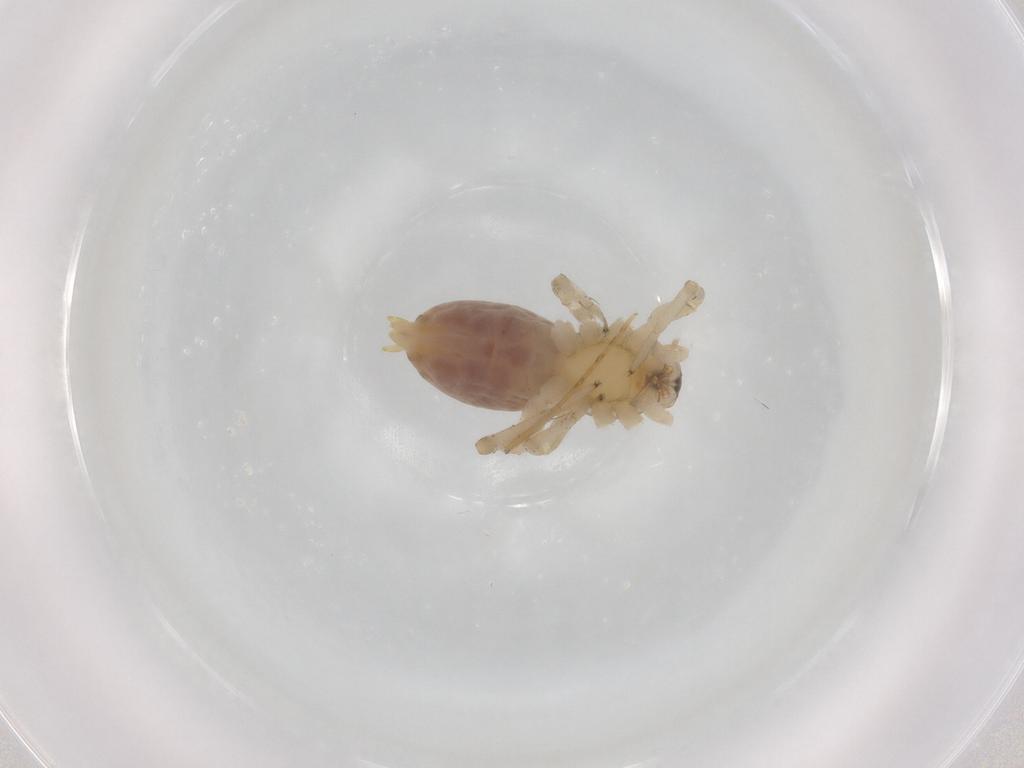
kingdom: Animalia
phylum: Arthropoda
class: Arachnida
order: Araneae
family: Anyphaenidae
